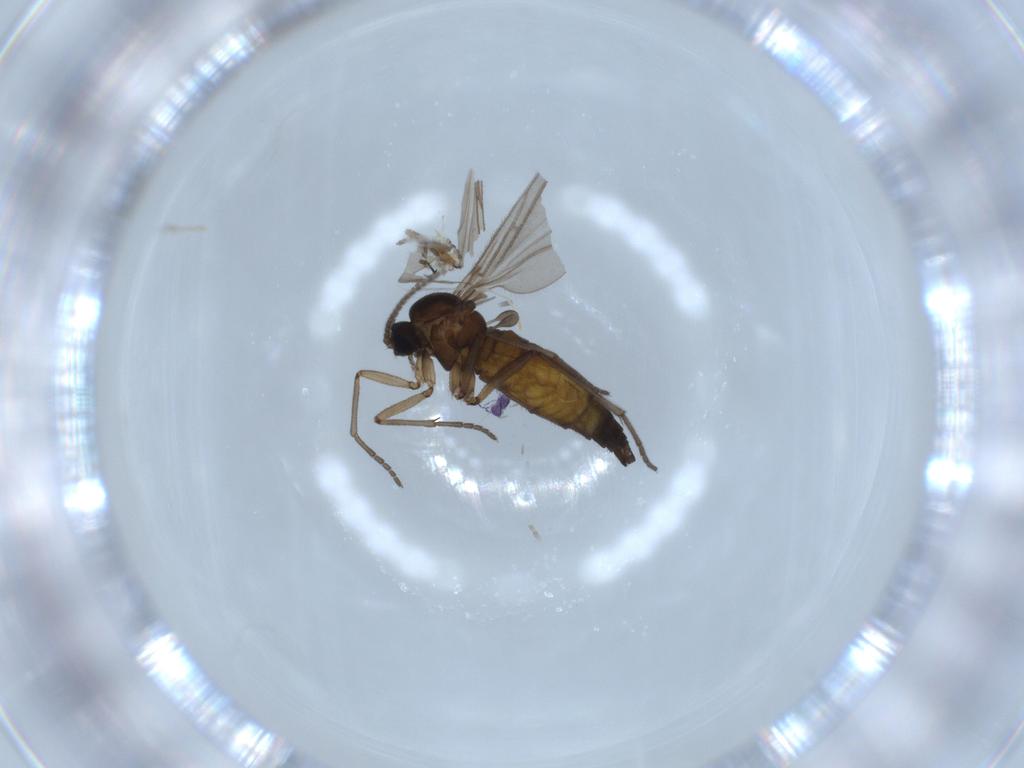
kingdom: Animalia
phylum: Arthropoda
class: Insecta
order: Diptera
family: Sciaridae
